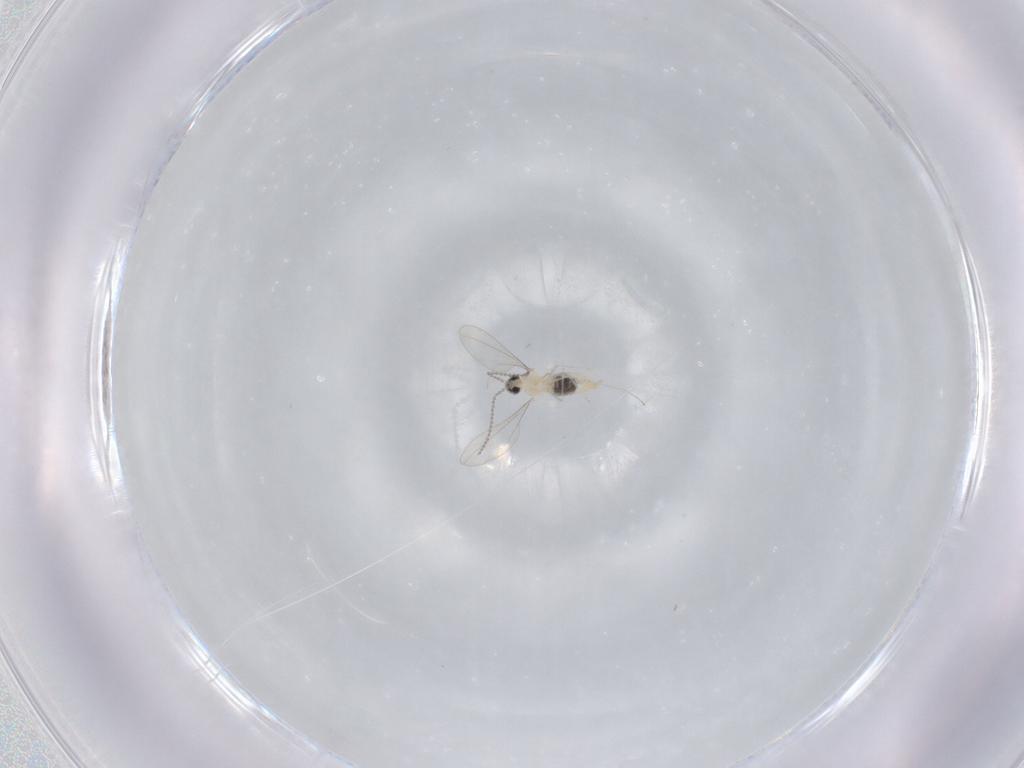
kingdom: Animalia
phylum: Arthropoda
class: Insecta
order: Diptera
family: Cecidomyiidae
